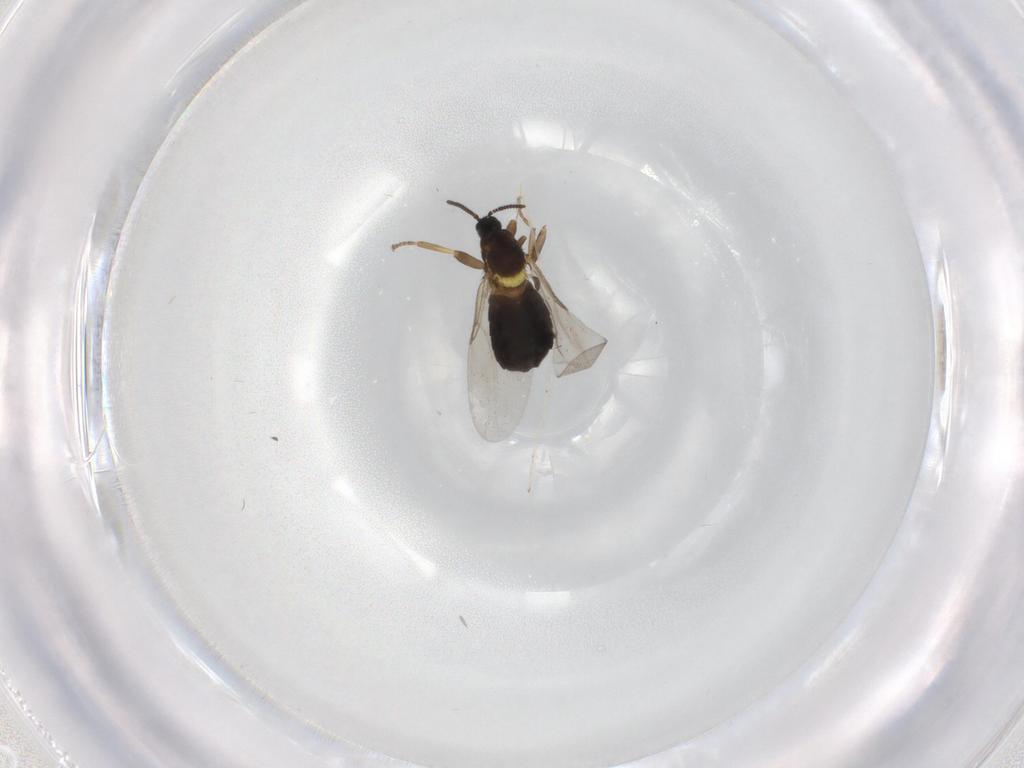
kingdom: Animalia
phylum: Arthropoda
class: Insecta
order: Diptera
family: Scatopsidae
